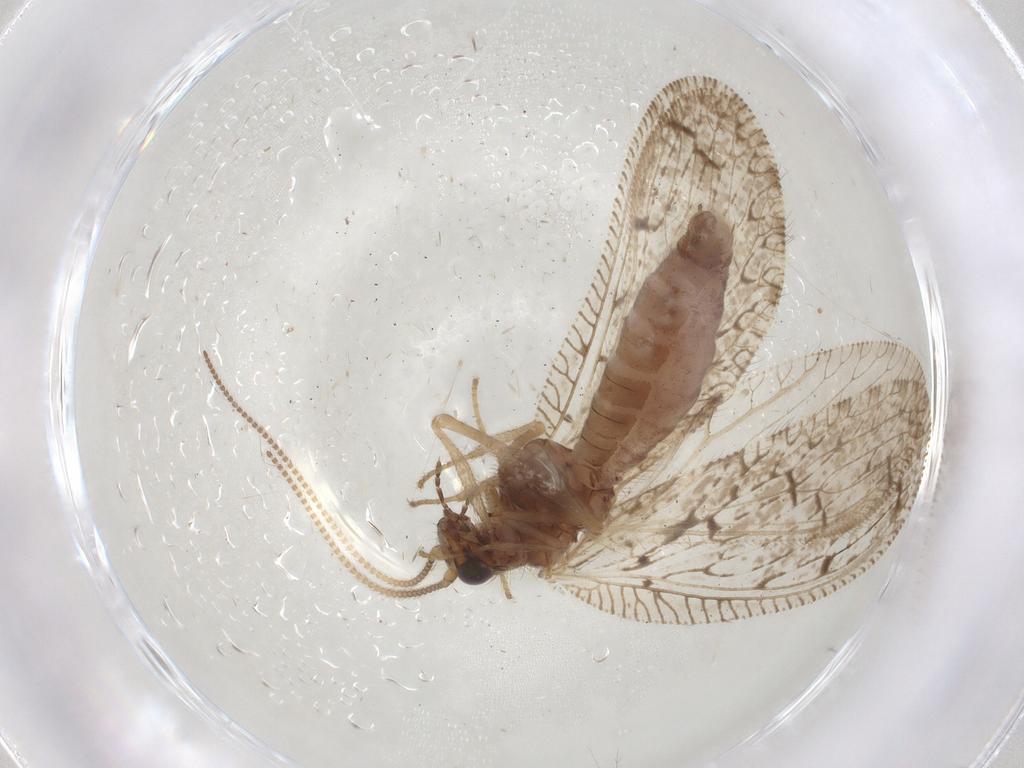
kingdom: Animalia
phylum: Arthropoda
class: Insecta
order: Neuroptera
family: Hemerobiidae
